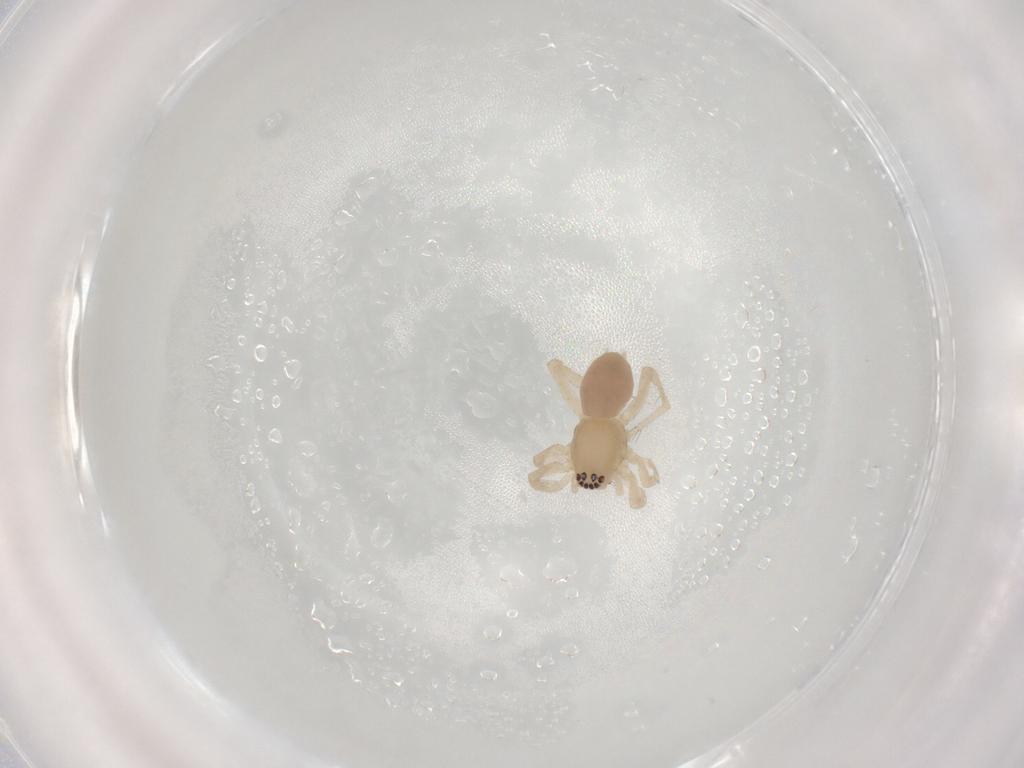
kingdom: Animalia
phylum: Arthropoda
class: Arachnida
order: Araneae
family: Anyphaenidae
